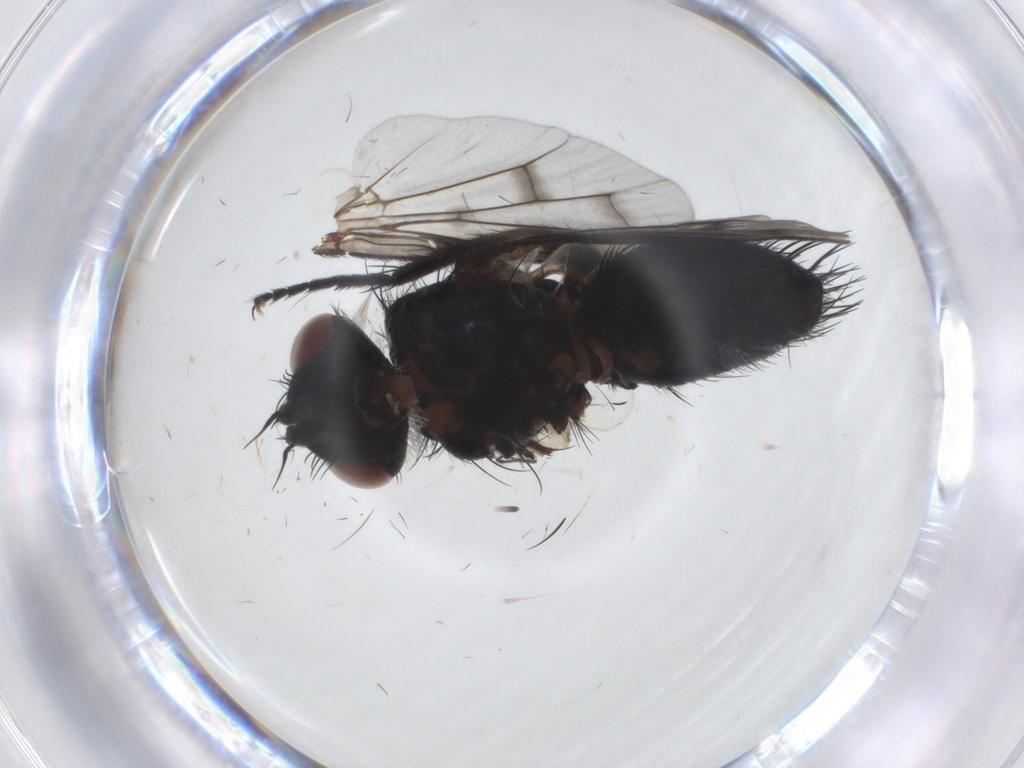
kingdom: Animalia
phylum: Arthropoda
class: Insecta
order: Diptera
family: Tachinidae
